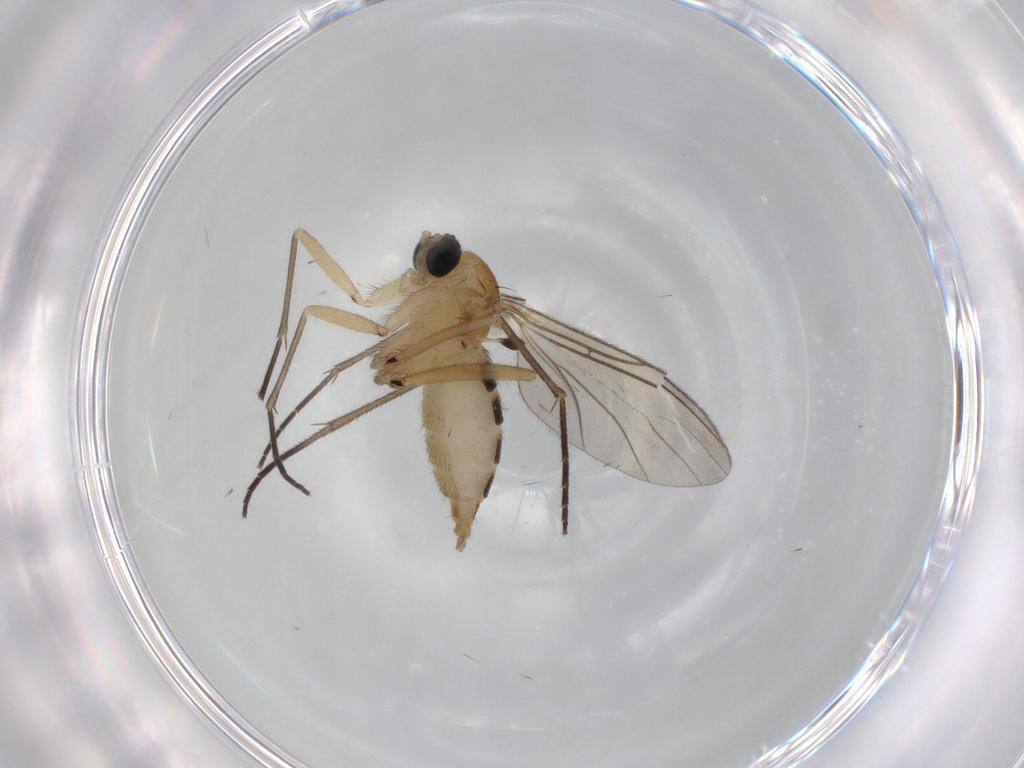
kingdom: Animalia
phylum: Arthropoda
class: Insecta
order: Diptera
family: Sciaridae
